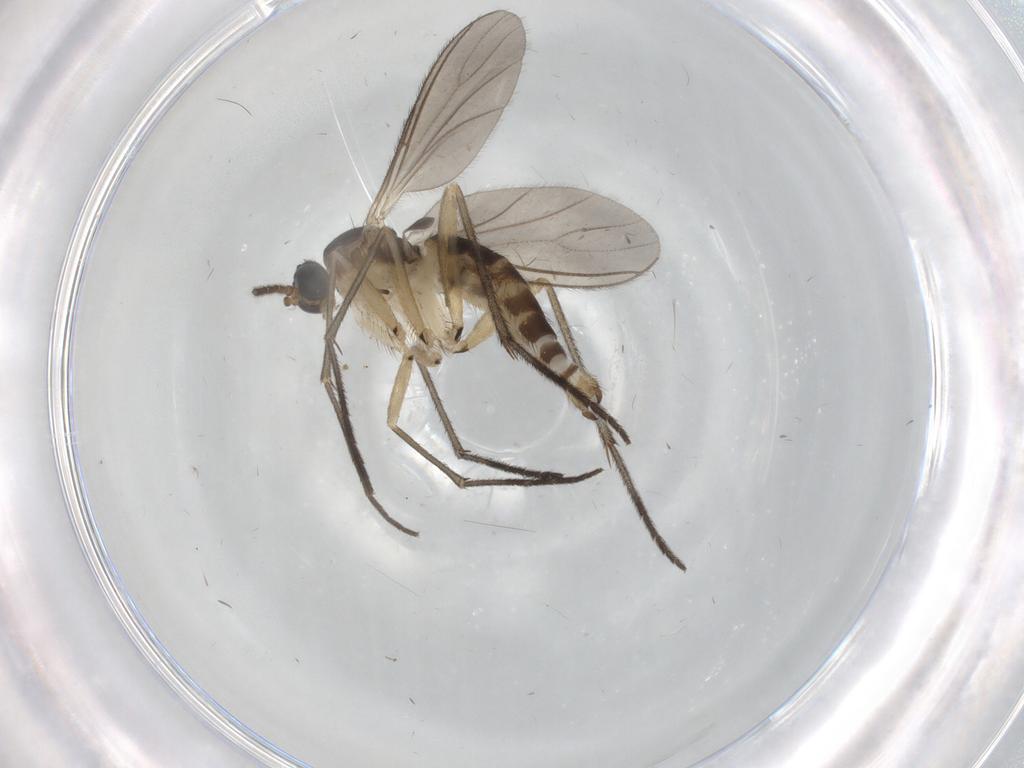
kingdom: Animalia
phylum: Arthropoda
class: Insecta
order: Diptera
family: Sciaridae
